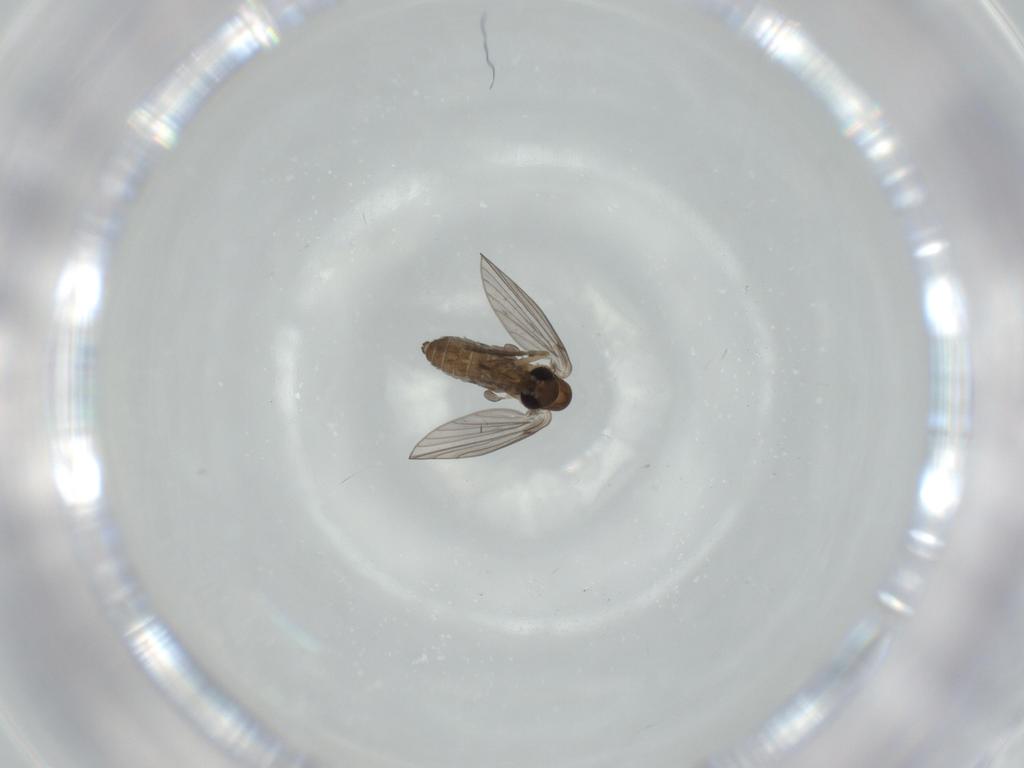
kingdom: Animalia
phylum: Arthropoda
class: Insecta
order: Diptera
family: Psychodidae
